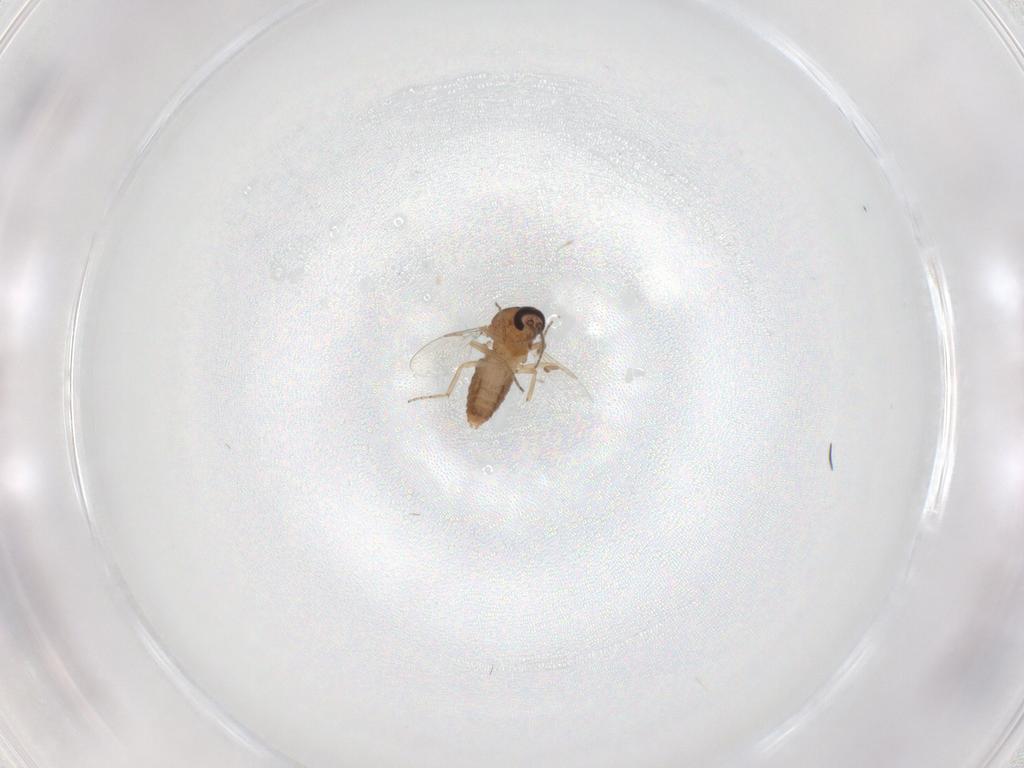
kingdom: Animalia
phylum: Arthropoda
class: Insecta
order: Diptera
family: Ceratopogonidae
